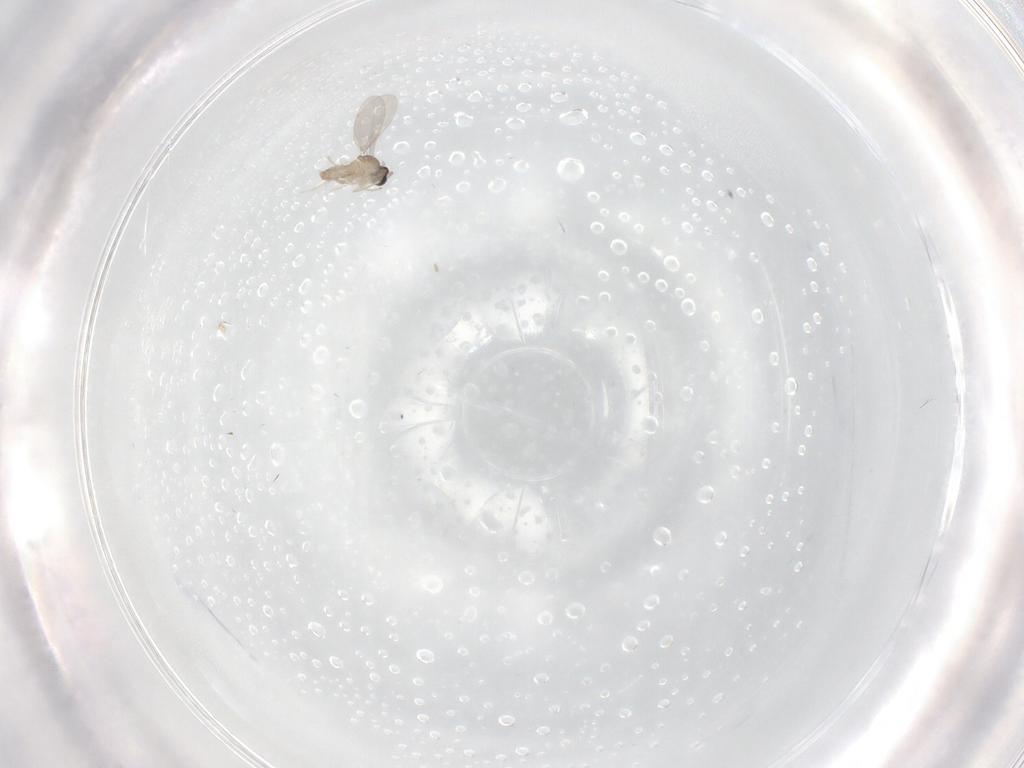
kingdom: Animalia
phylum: Arthropoda
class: Insecta
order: Diptera
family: Cecidomyiidae
